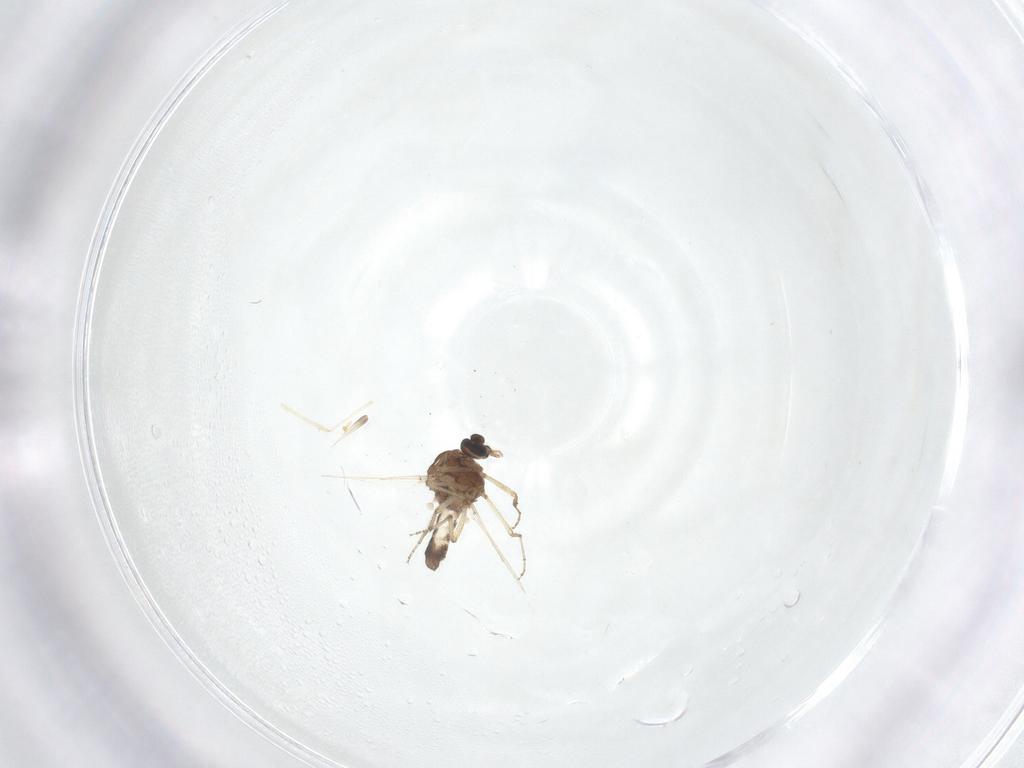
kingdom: Animalia
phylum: Arthropoda
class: Insecta
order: Diptera
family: Ceratopogonidae
